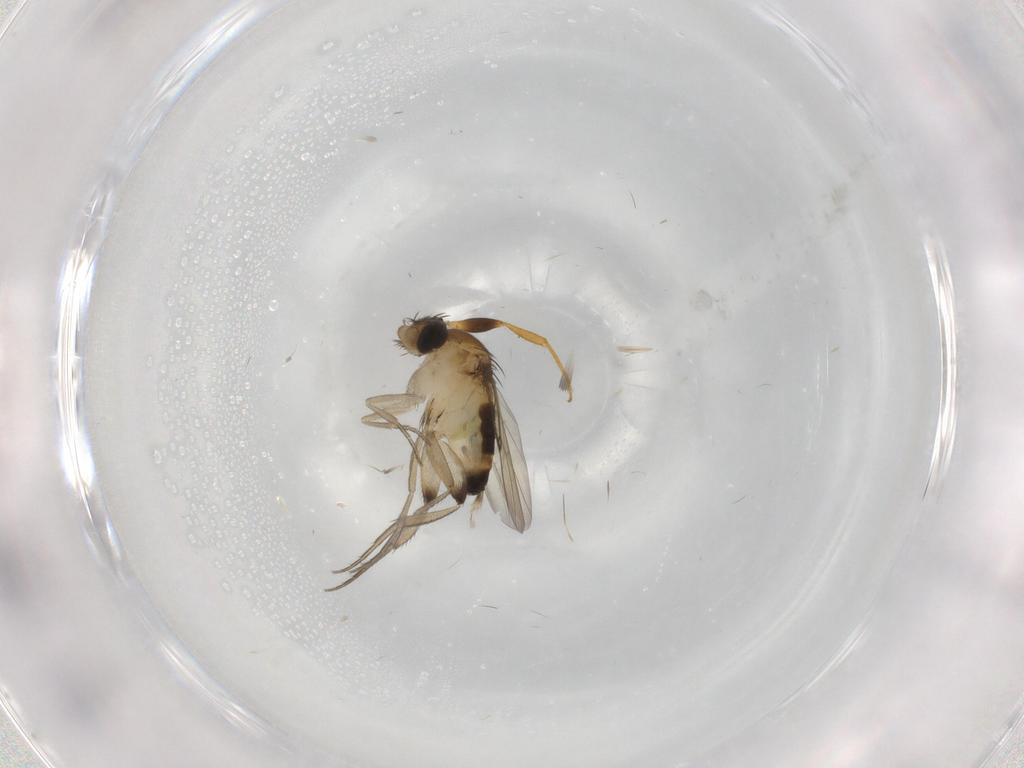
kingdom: Animalia
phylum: Arthropoda
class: Insecta
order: Diptera
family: Phoridae
